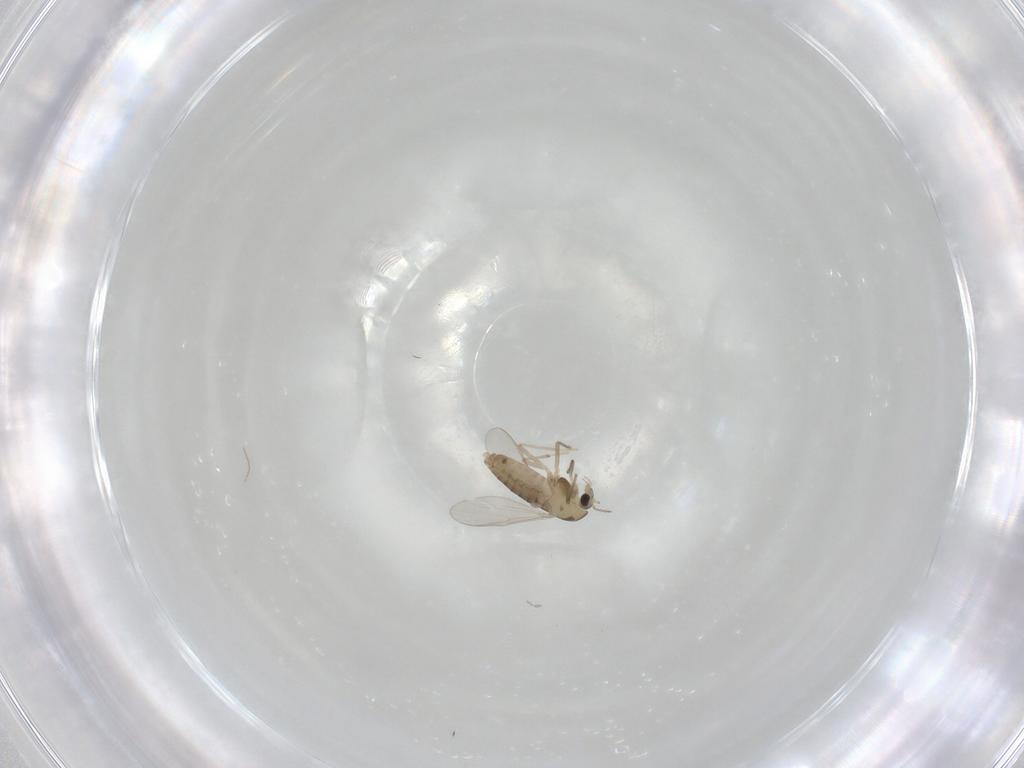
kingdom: Animalia
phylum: Arthropoda
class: Insecta
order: Diptera
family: Chironomidae
